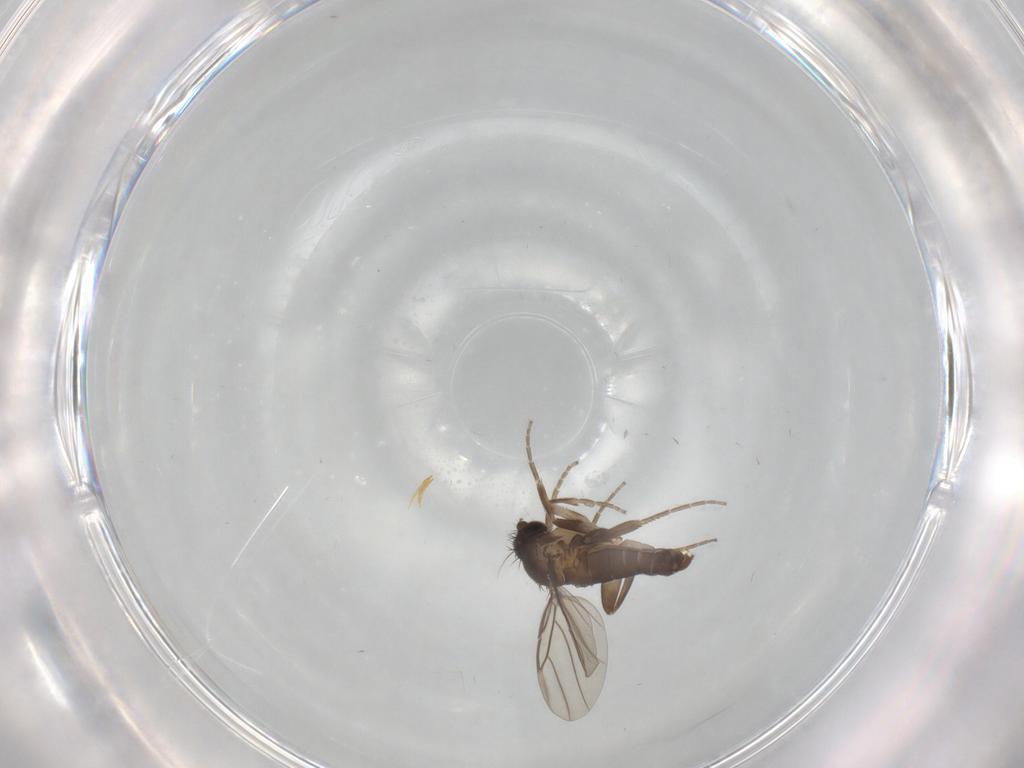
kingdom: Animalia
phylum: Arthropoda
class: Insecta
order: Diptera
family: Phoridae
